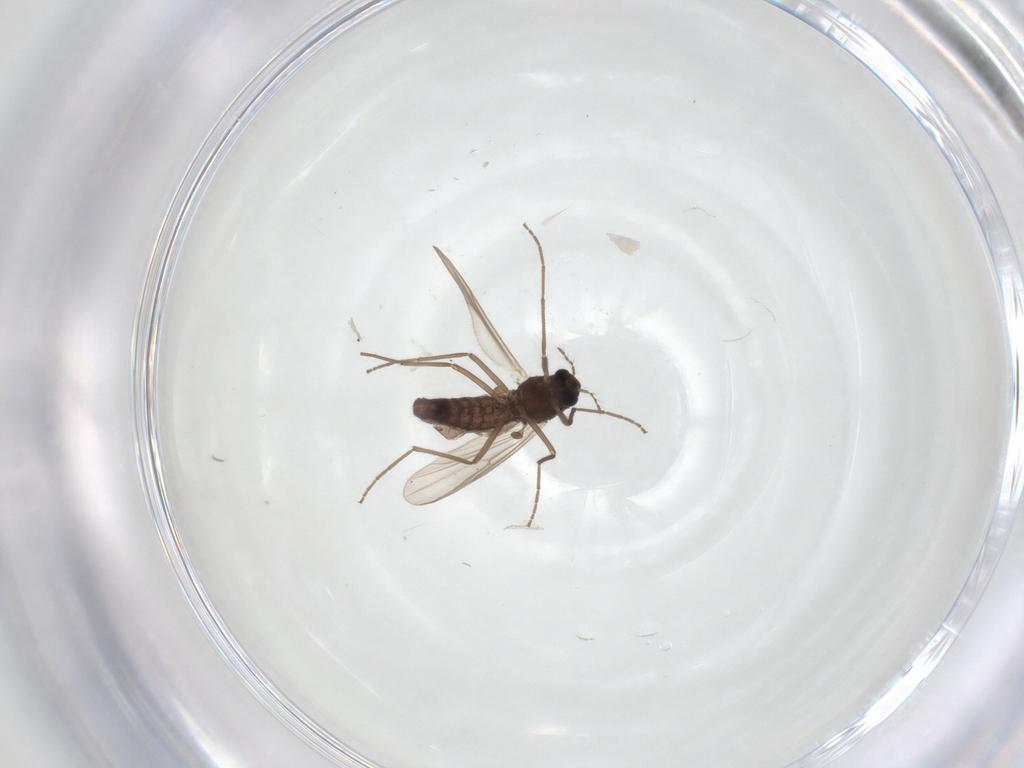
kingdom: Animalia
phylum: Arthropoda
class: Insecta
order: Diptera
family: Chironomidae
